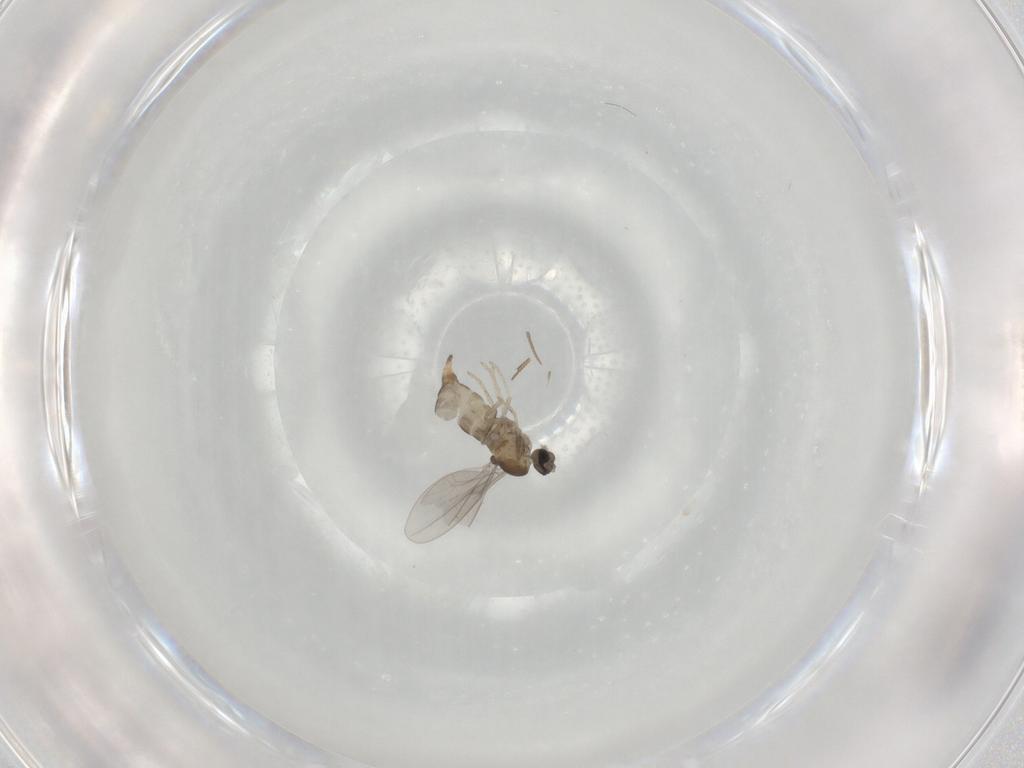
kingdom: Animalia
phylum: Arthropoda
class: Insecta
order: Diptera
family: Cecidomyiidae
